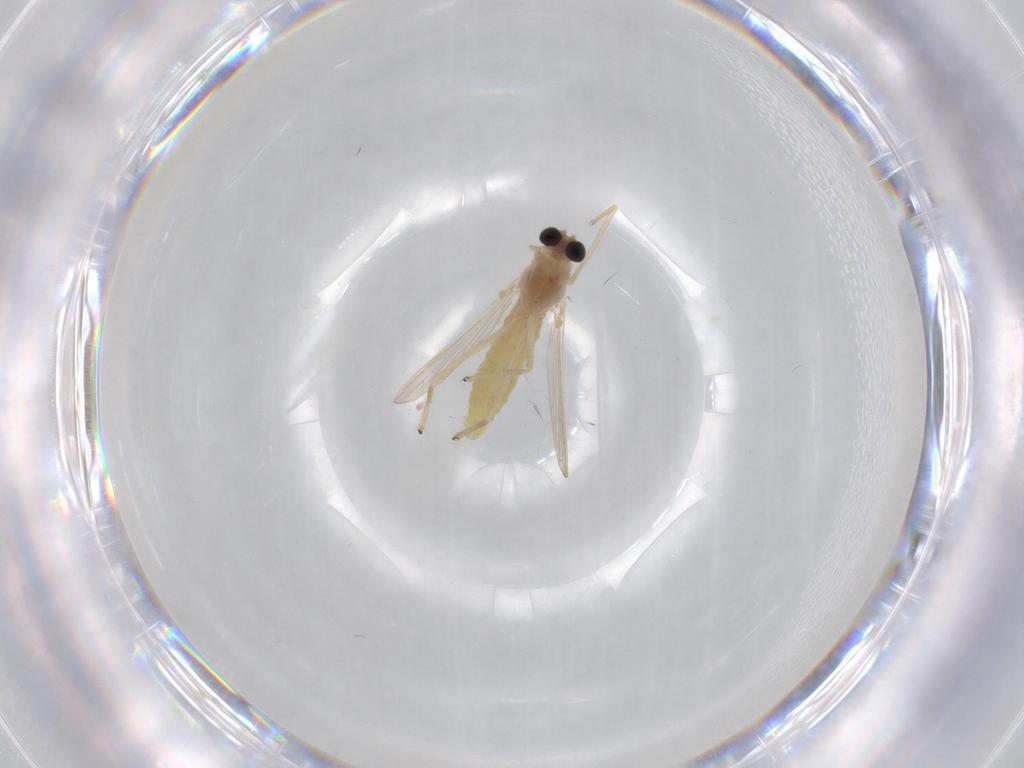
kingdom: Animalia
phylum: Arthropoda
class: Insecta
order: Diptera
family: Chironomidae
